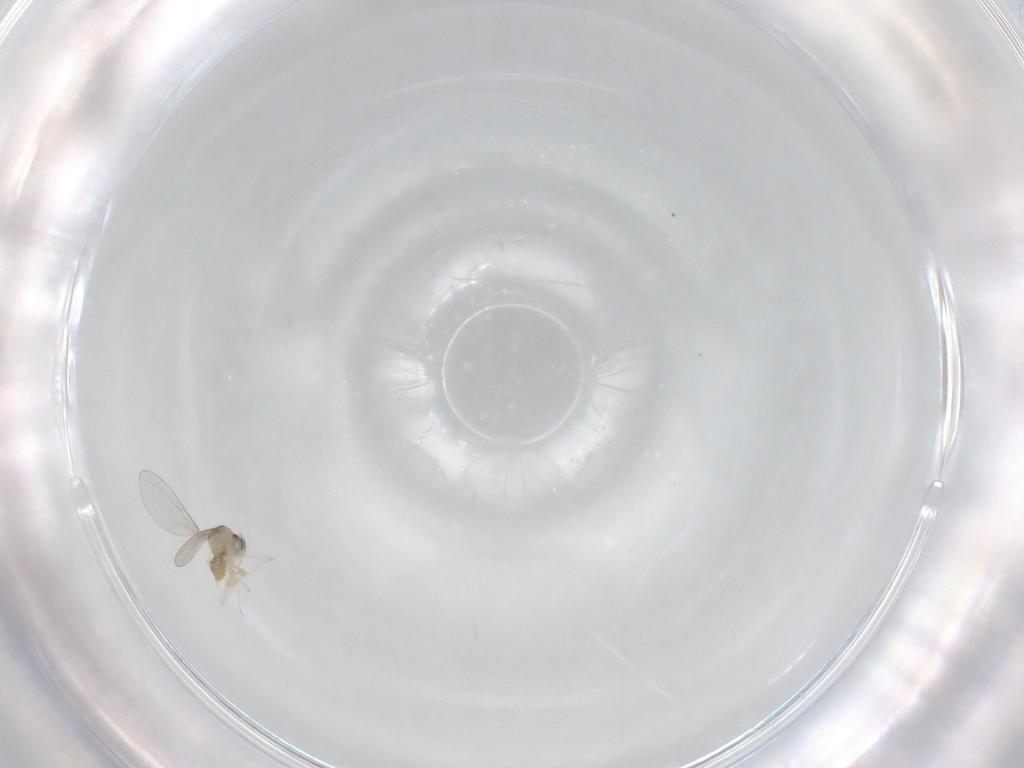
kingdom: Animalia
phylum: Arthropoda
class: Insecta
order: Diptera
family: Cecidomyiidae
